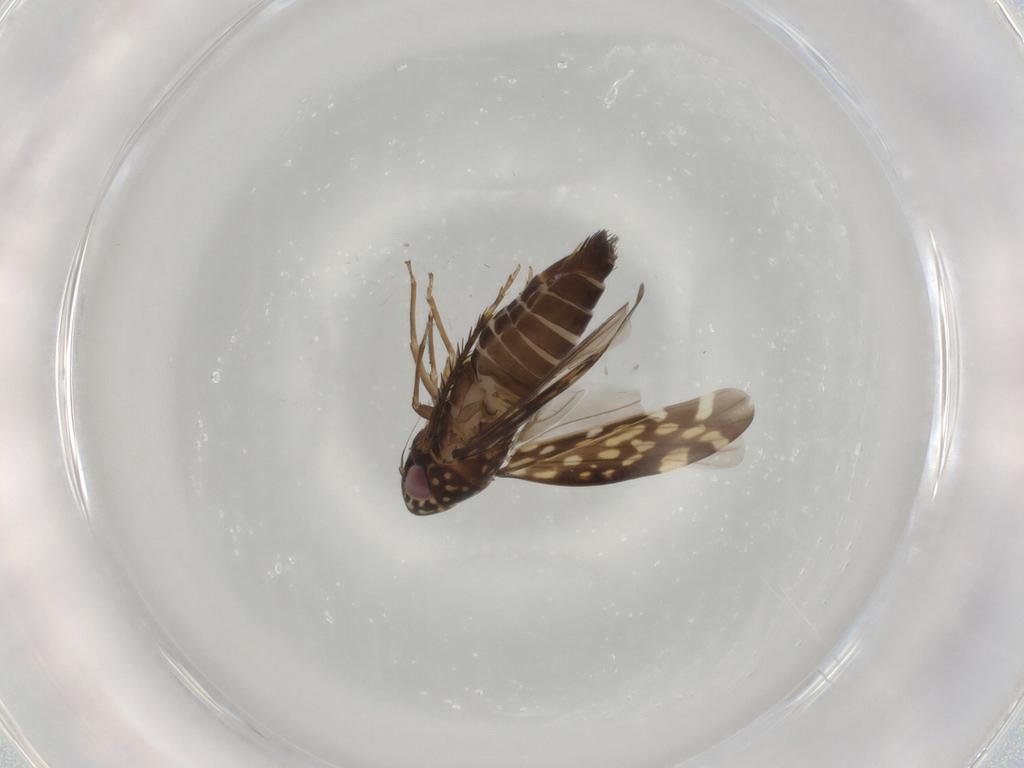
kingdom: Animalia
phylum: Arthropoda
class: Insecta
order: Hemiptera
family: Cicadellidae
